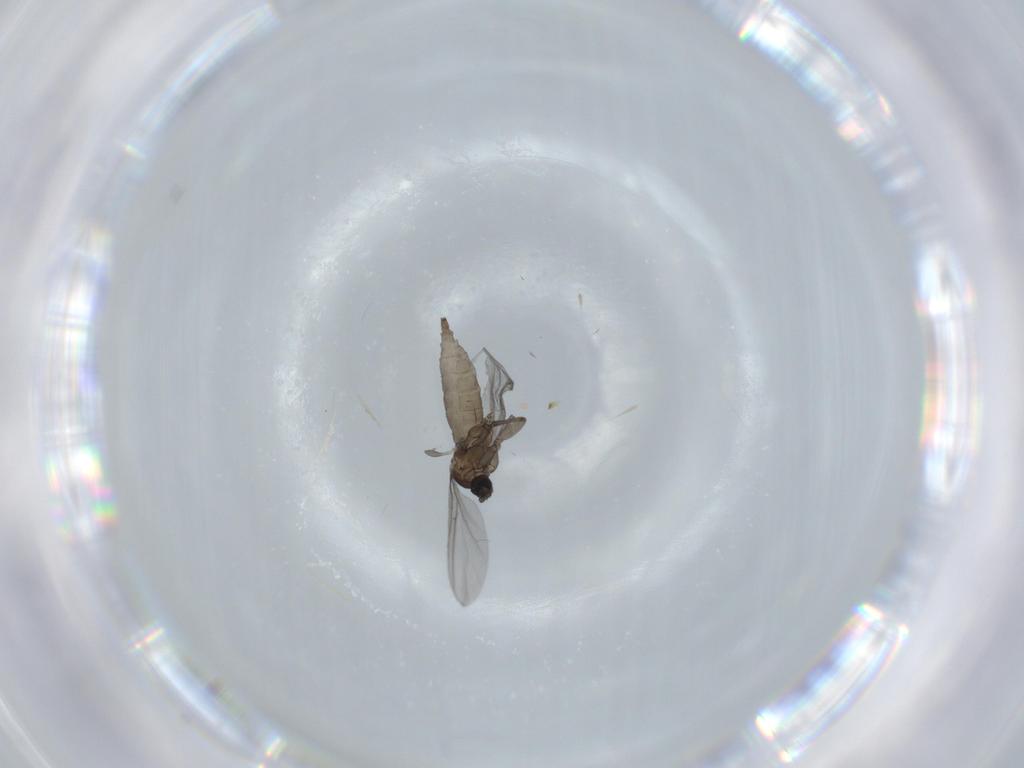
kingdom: Animalia
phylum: Arthropoda
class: Insecta
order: Diptera
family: Sciaridae
